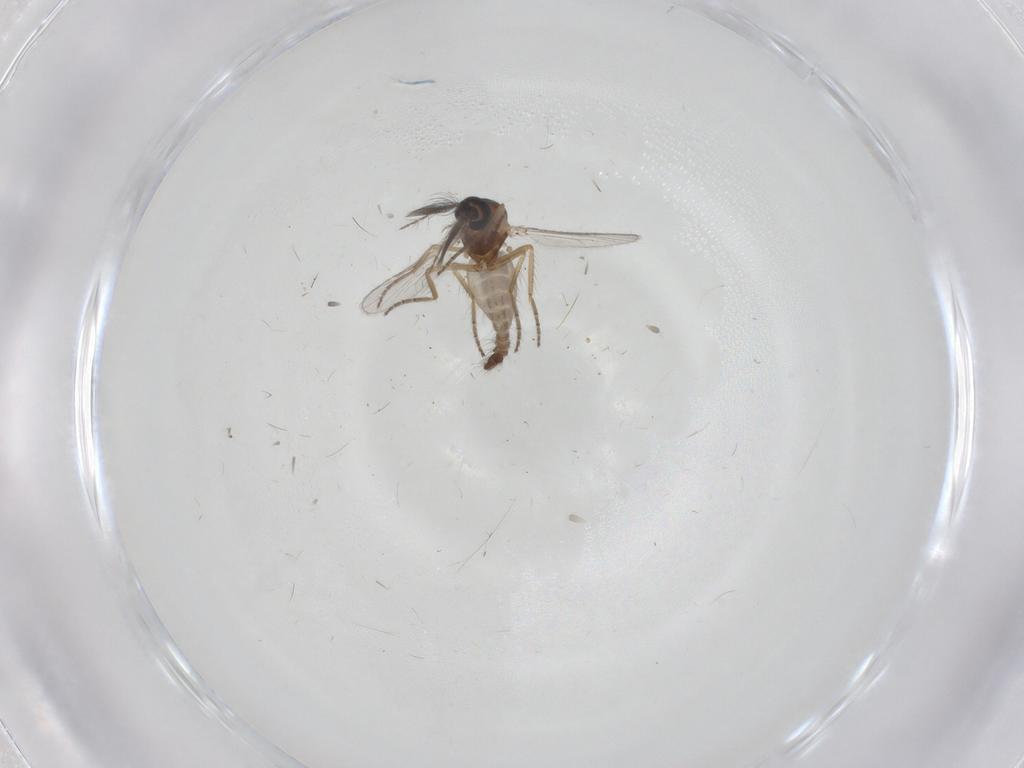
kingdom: Animalia
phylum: Arthropoda
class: Insecta
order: Diptera
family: Ceratopogonidae
